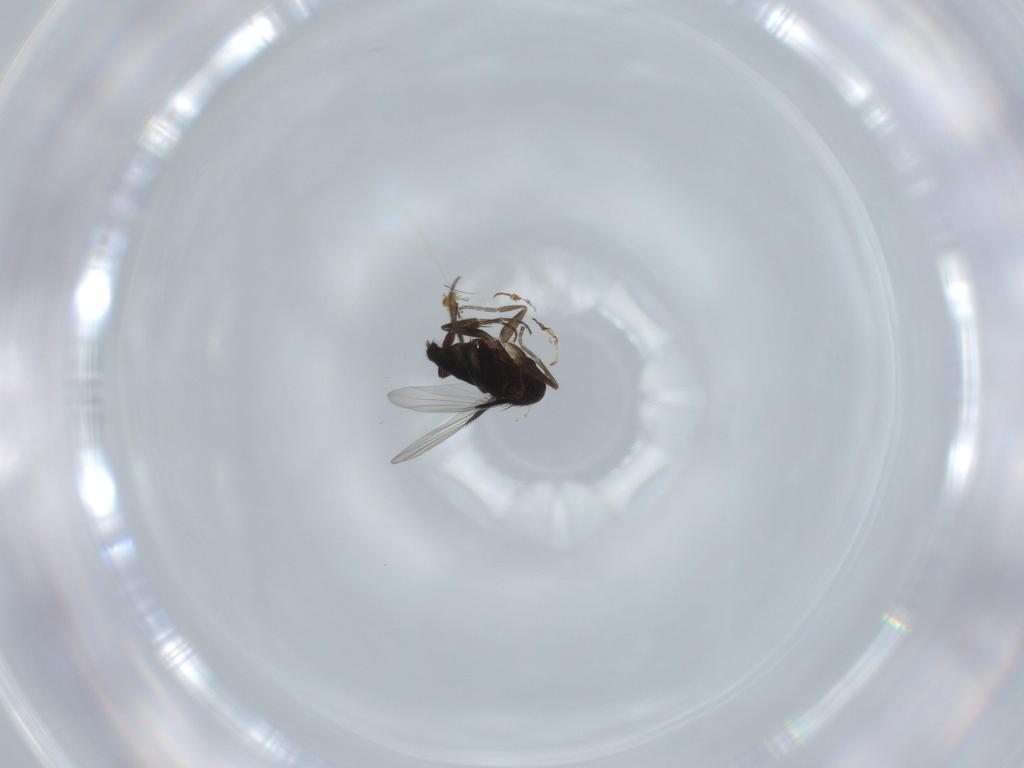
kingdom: Animalia
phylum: Arthropoda
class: Insecta
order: Diptera
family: Phoridae
